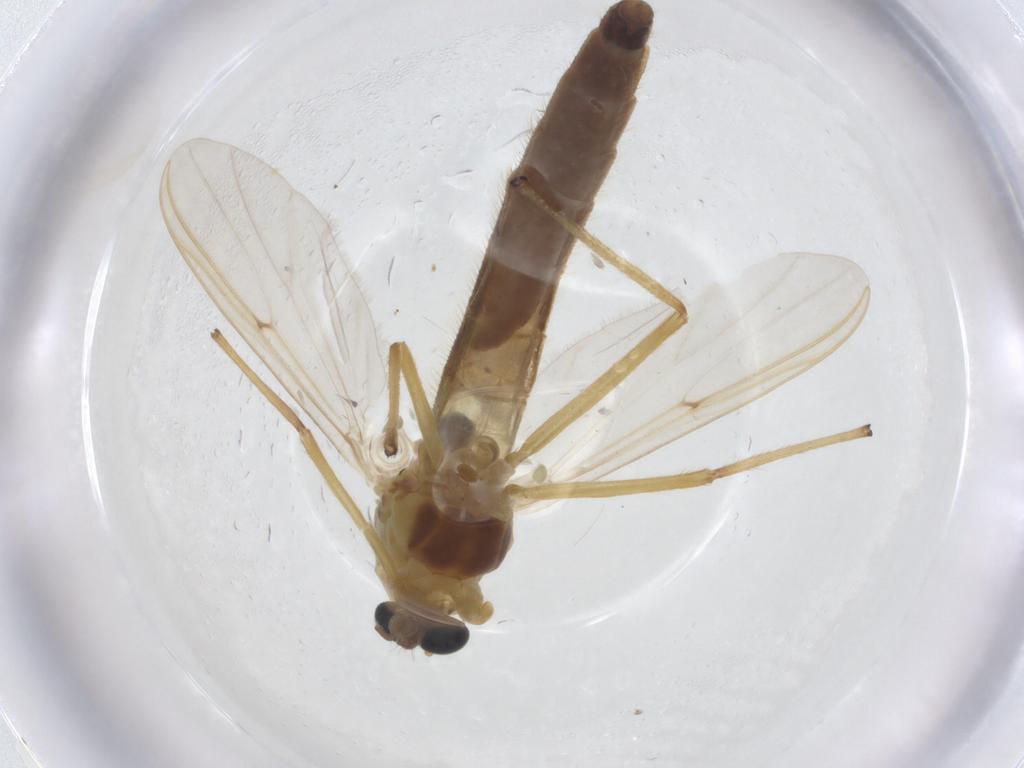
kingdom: Animalia
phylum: Arthropoda
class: Insecta
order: Diptera
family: Chironomidae
